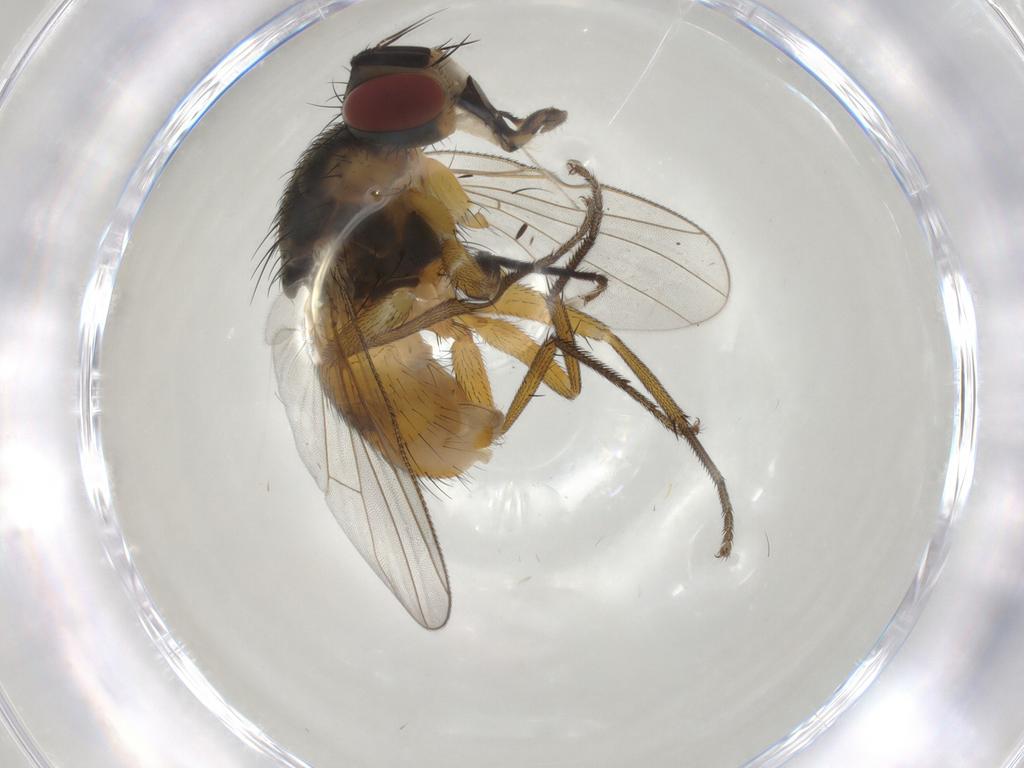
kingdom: Animalia
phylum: Arthropoda
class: Insecta
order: Diptera
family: Muscidae
